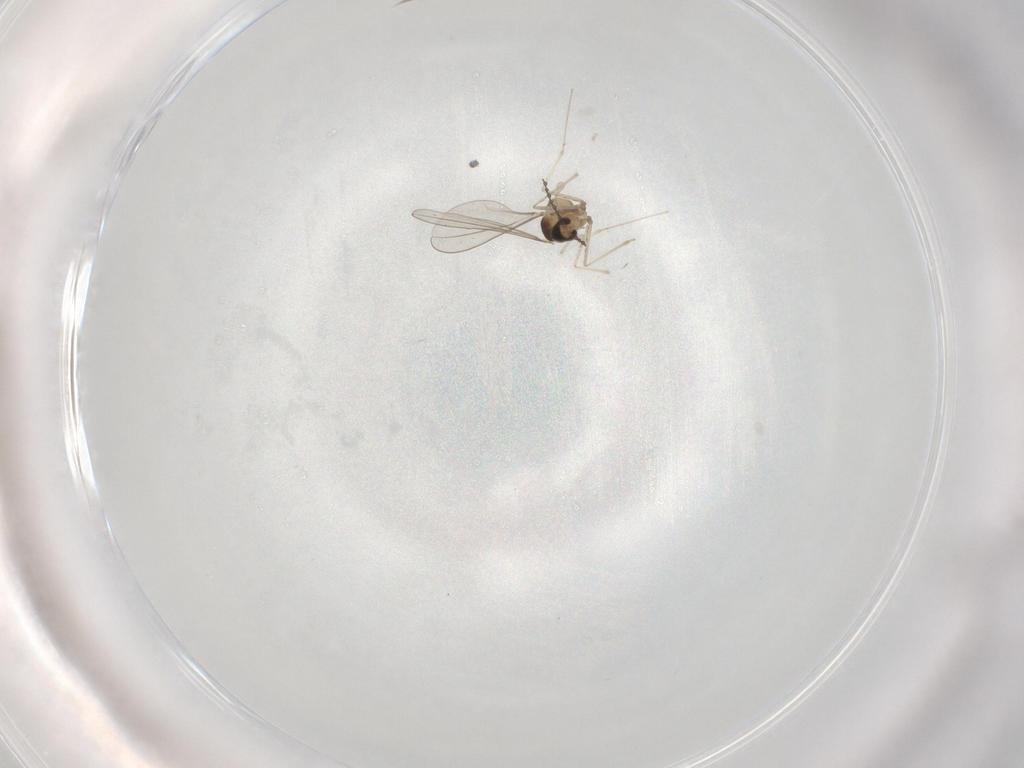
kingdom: Animalia
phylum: Arthropoda
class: Insecta
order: Diptera
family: Cecidomyiidae
